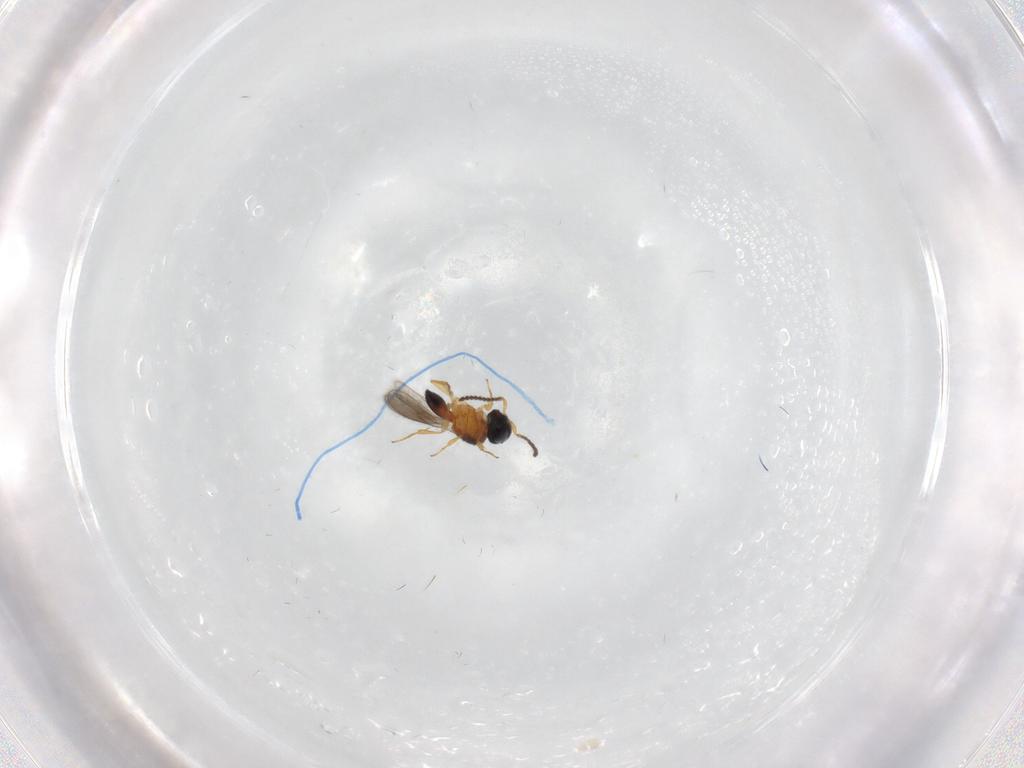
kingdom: Animalia
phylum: Arthropoda
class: Insecta
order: Hymenoptera
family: Scelionidae
